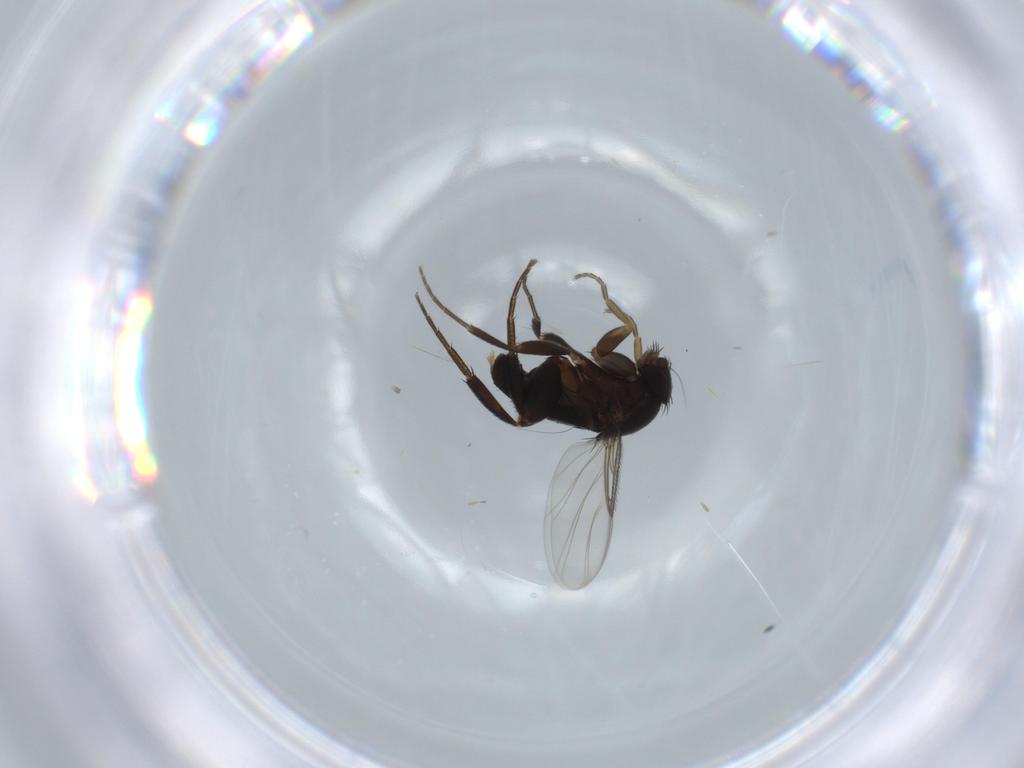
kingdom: Animalia
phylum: Arthropoda
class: Insecta
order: Diptera
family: Phoridae
